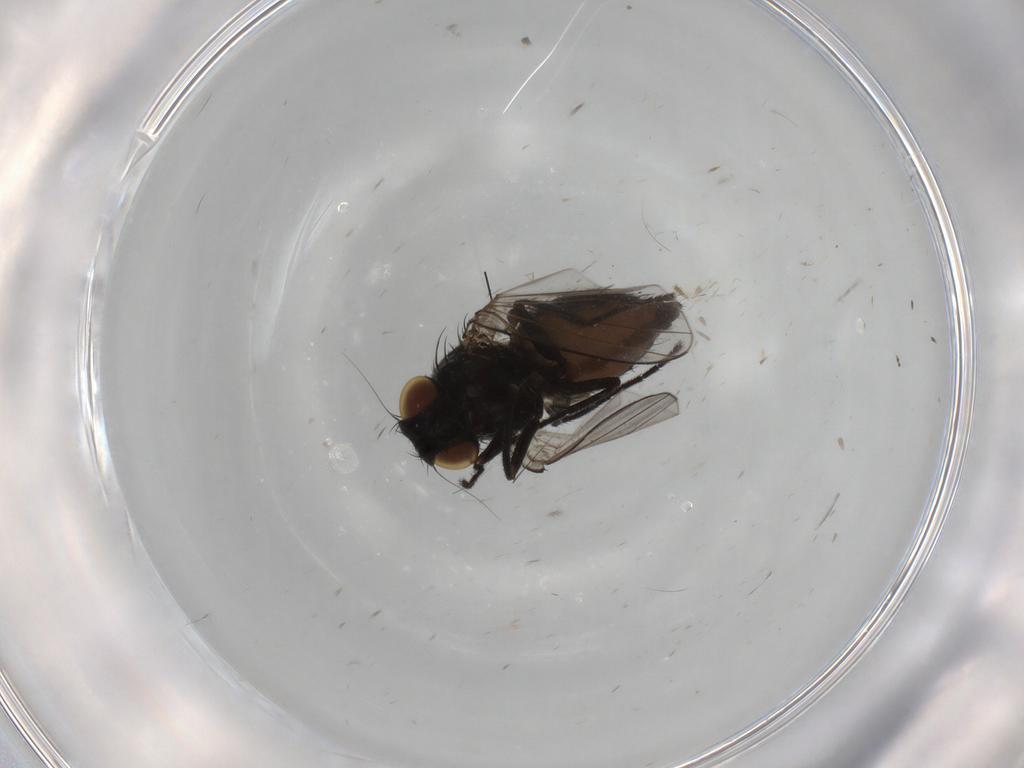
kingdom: Animalia
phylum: Arthropoda
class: Insecta
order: Diptera
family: Milichiidae
